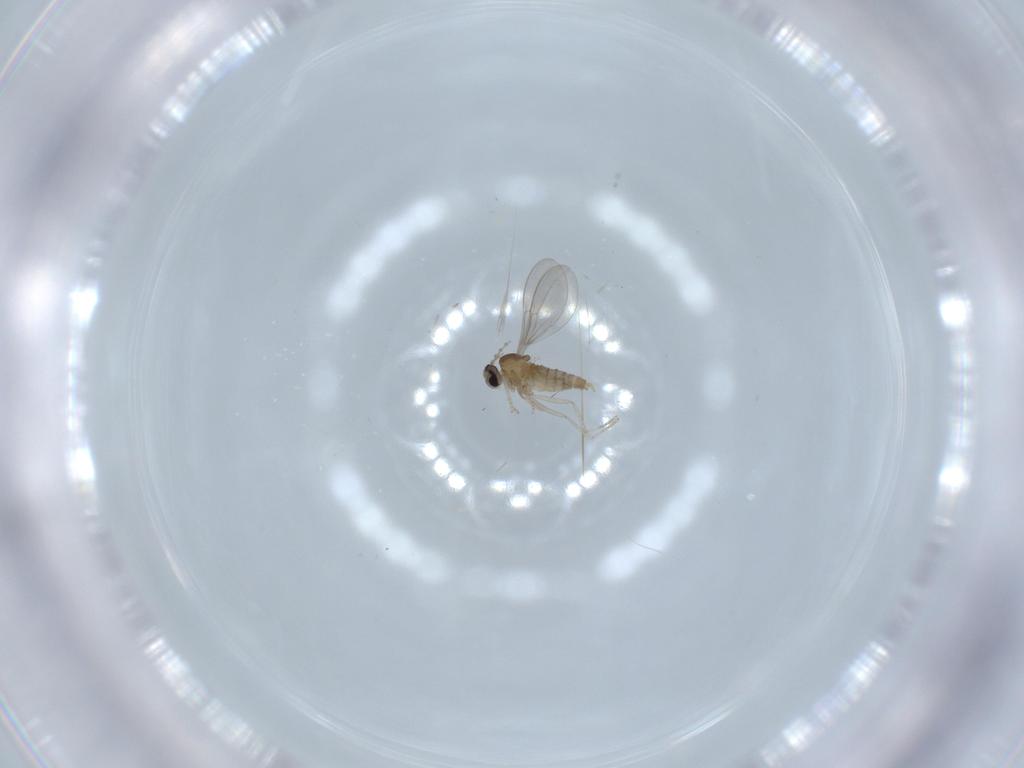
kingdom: Animalia
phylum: Arthropoda
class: Insecta
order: Diptera
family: Cecidomyiidae
